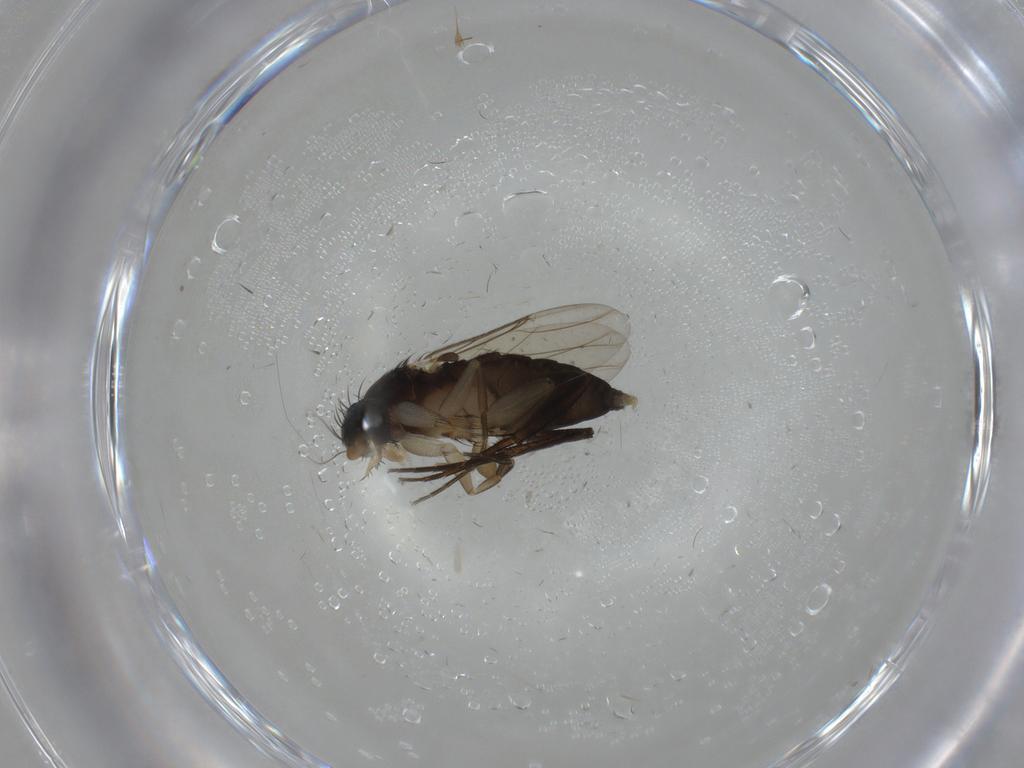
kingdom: Animalia
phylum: Arthropoda
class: Insecta
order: Diptera
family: Phoridae
